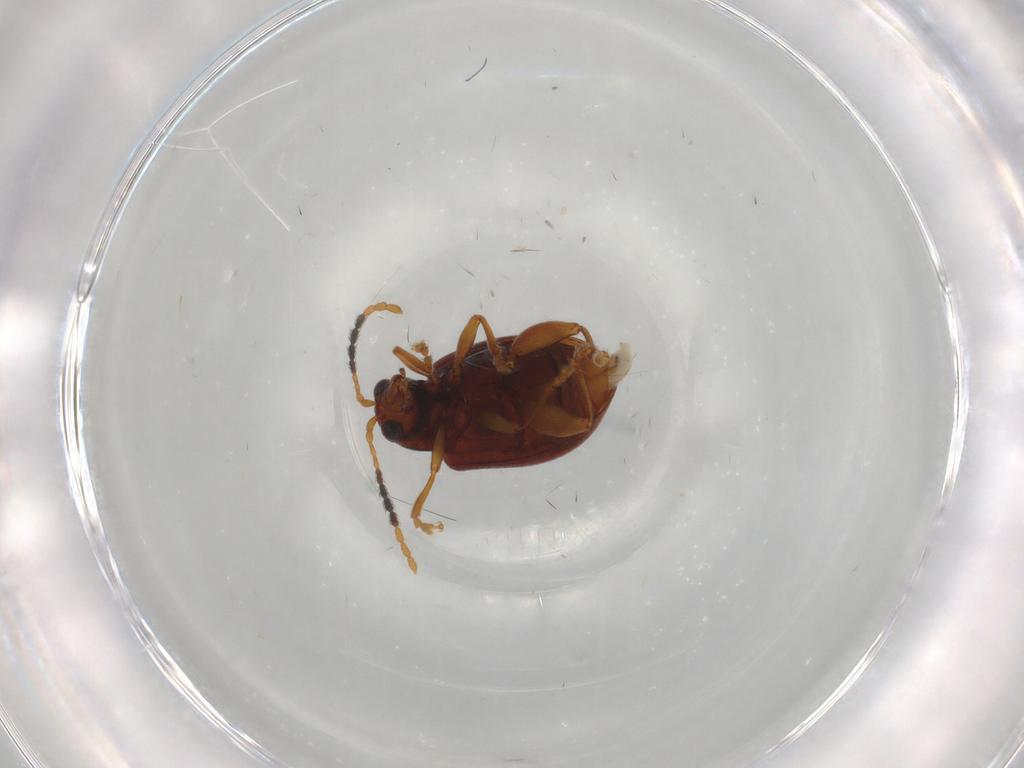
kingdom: Animalia
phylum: Arthropoda
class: Insecta
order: Coleoptera
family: Chrysomelidae
